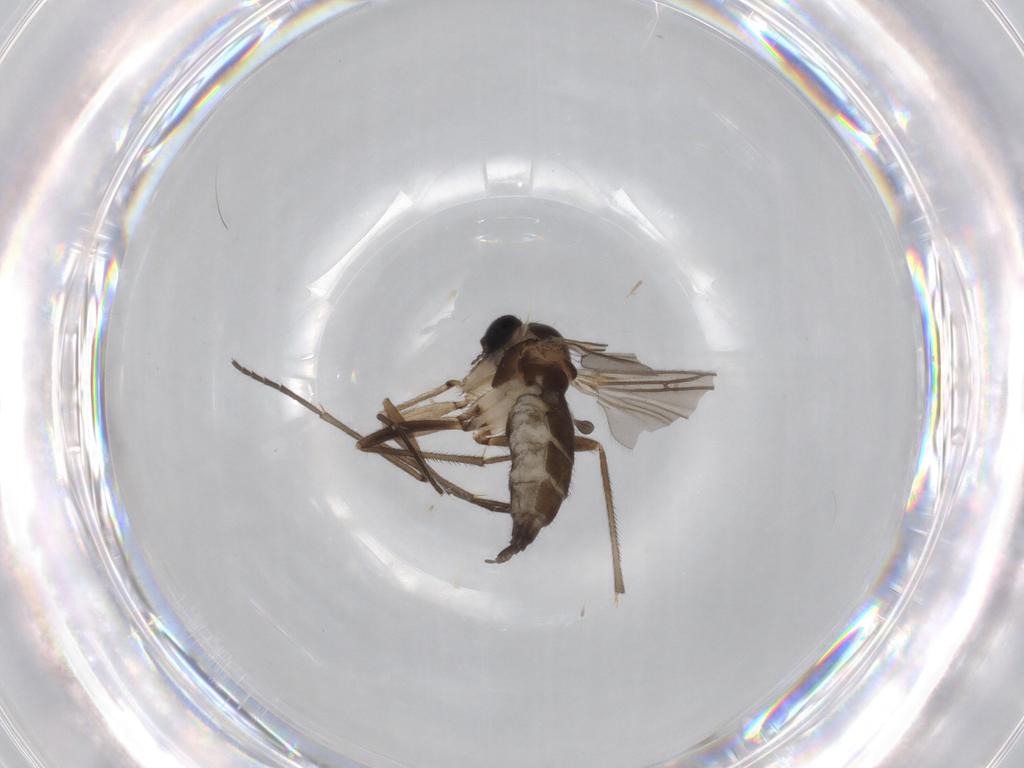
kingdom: Animalia
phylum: Arthropoda
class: Insecta
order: Diptera
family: Sciaridae
